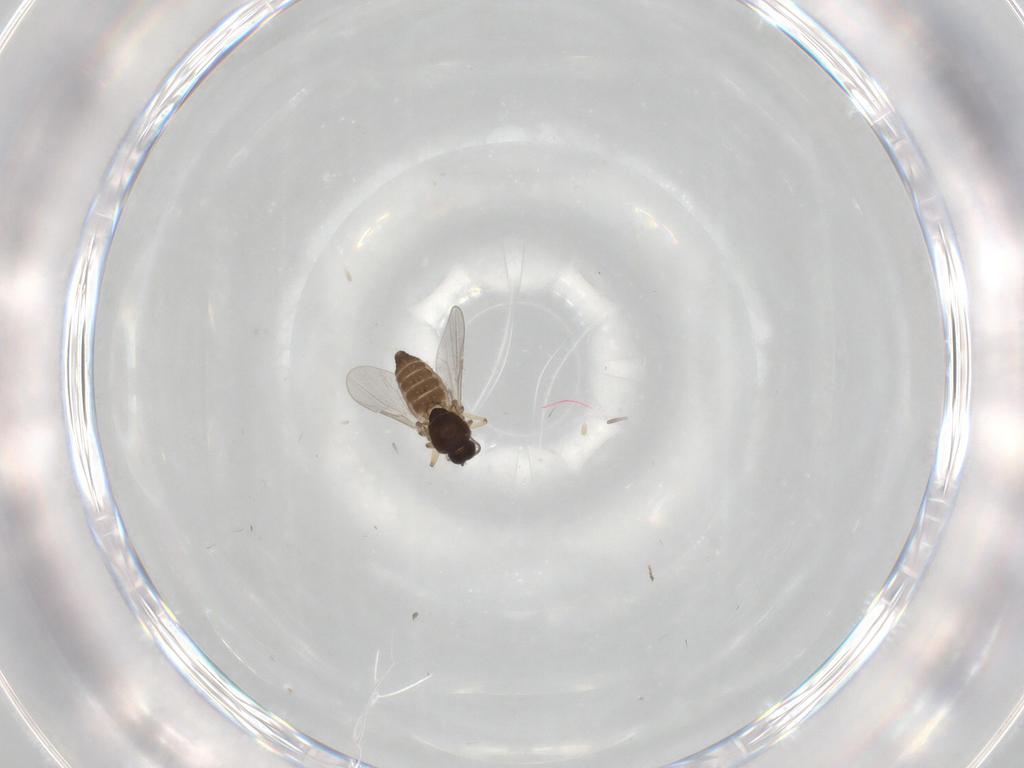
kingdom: Animalia
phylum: Arthropoda
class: Insecta
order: Diptera
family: Ceratopogonidae
